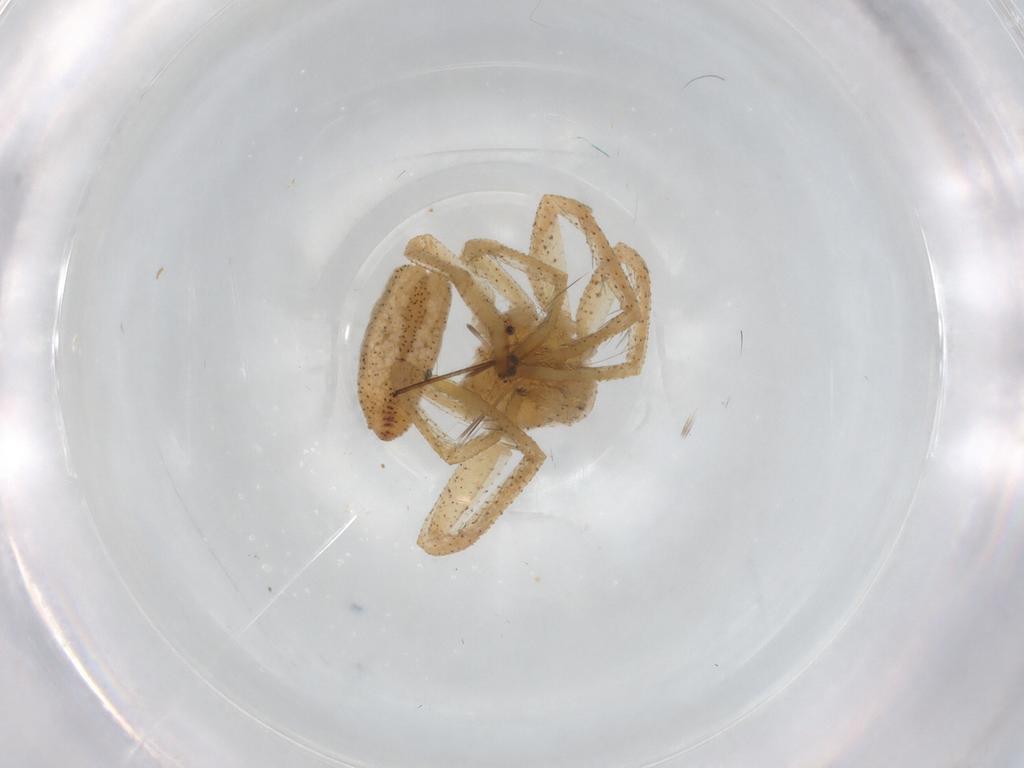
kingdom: Animalia
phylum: Arthropoda
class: Arachnida
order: Araneae
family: Philodromidae
